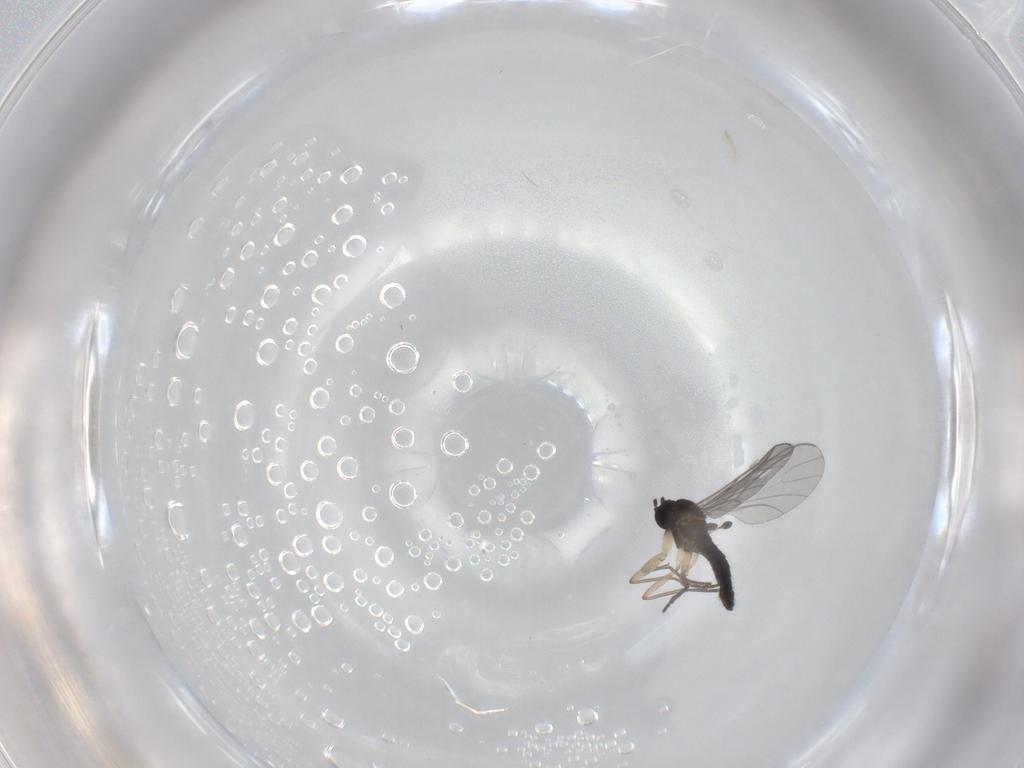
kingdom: Animalia
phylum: Arthropoda
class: Insecta
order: Diptera
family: Sciaridae
